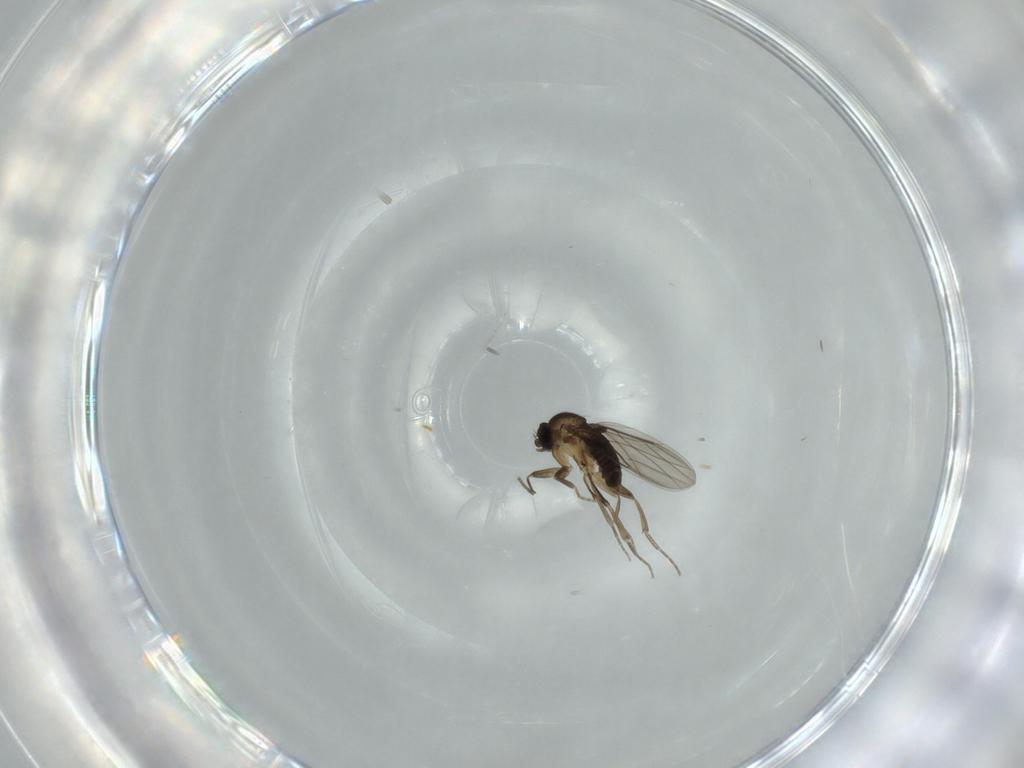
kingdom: Animalia
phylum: Arthropoda
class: Insecta
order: Diptera
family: Phoridae
